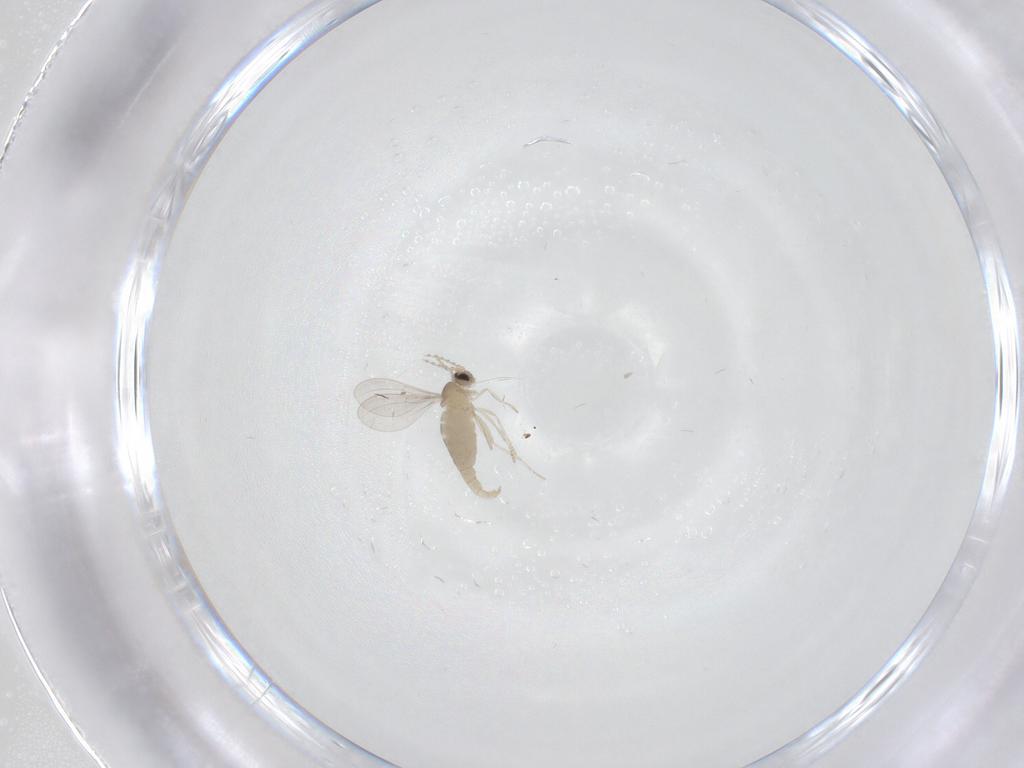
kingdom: Animalia
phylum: Arthropoda
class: Insecta
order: Diptera
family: Cecidomyiidae
